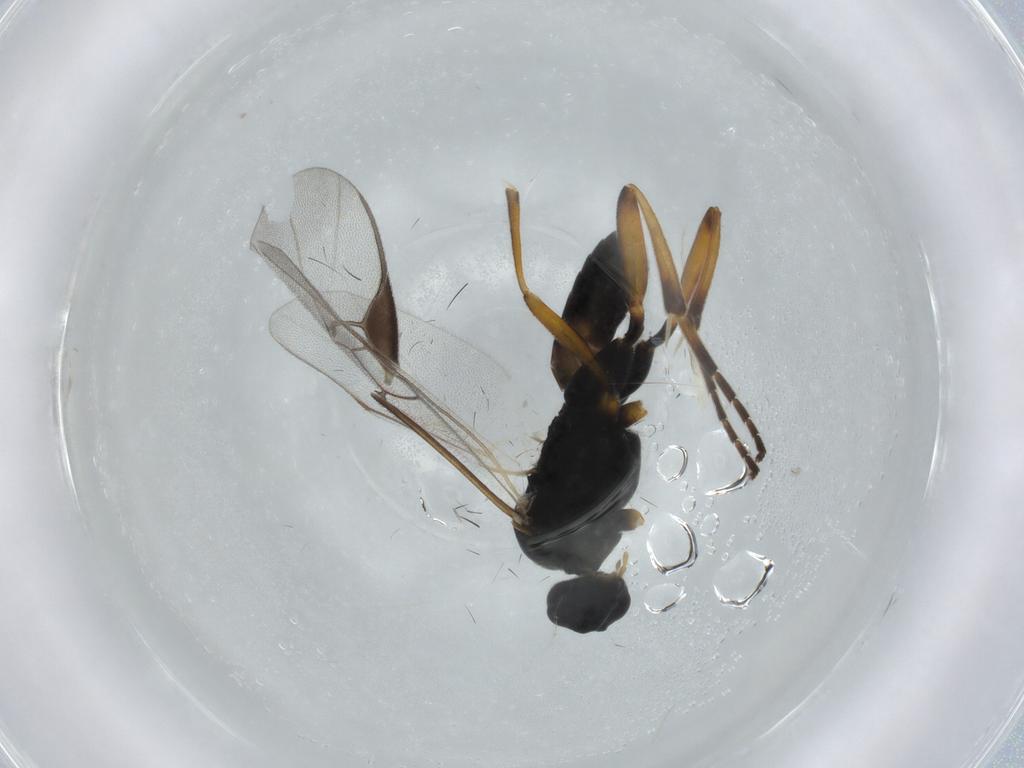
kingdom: Animalia
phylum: Arthropoda
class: Insecta
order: Hymenoptera
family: Braconidae
